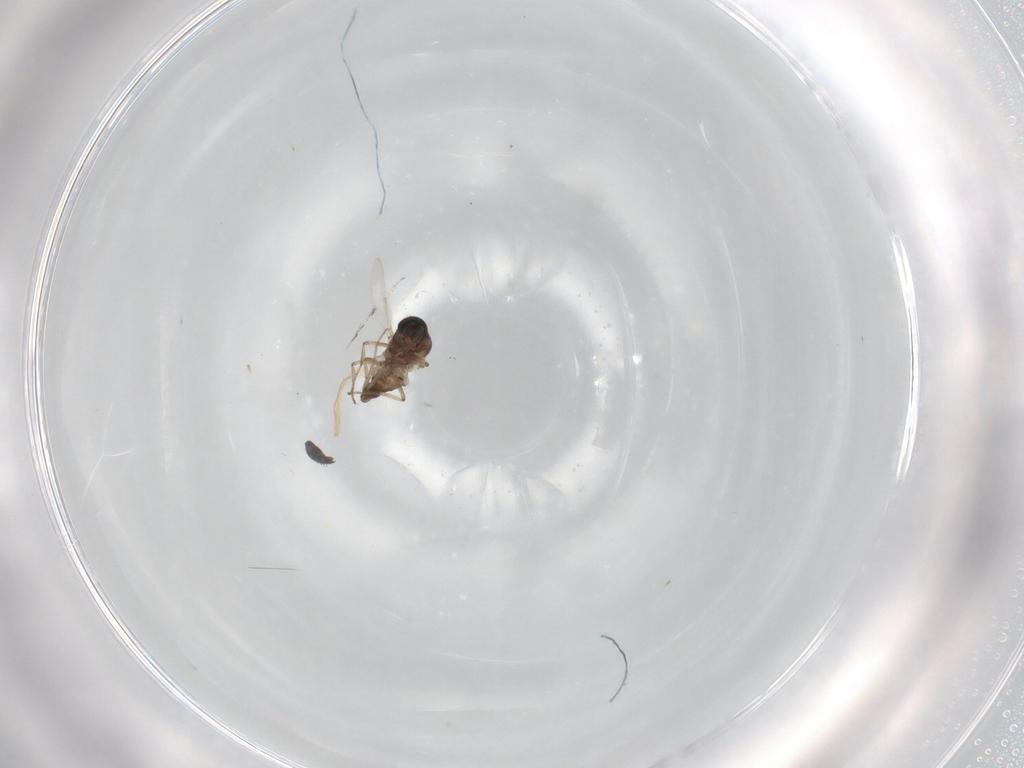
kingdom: Animalia
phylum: Arthropoda
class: Insecta
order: Diptera
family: Ceratopogonidae
